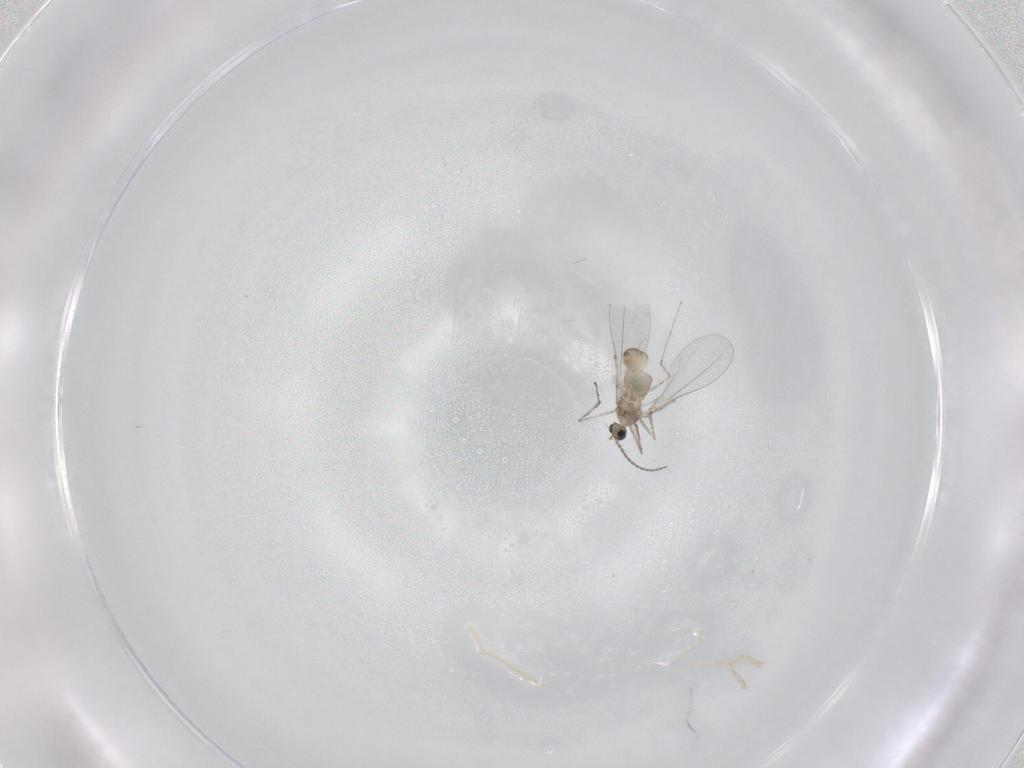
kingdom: Animalia
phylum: Arthropoda
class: Insecta
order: Diptera
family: Cecidomyiidae
